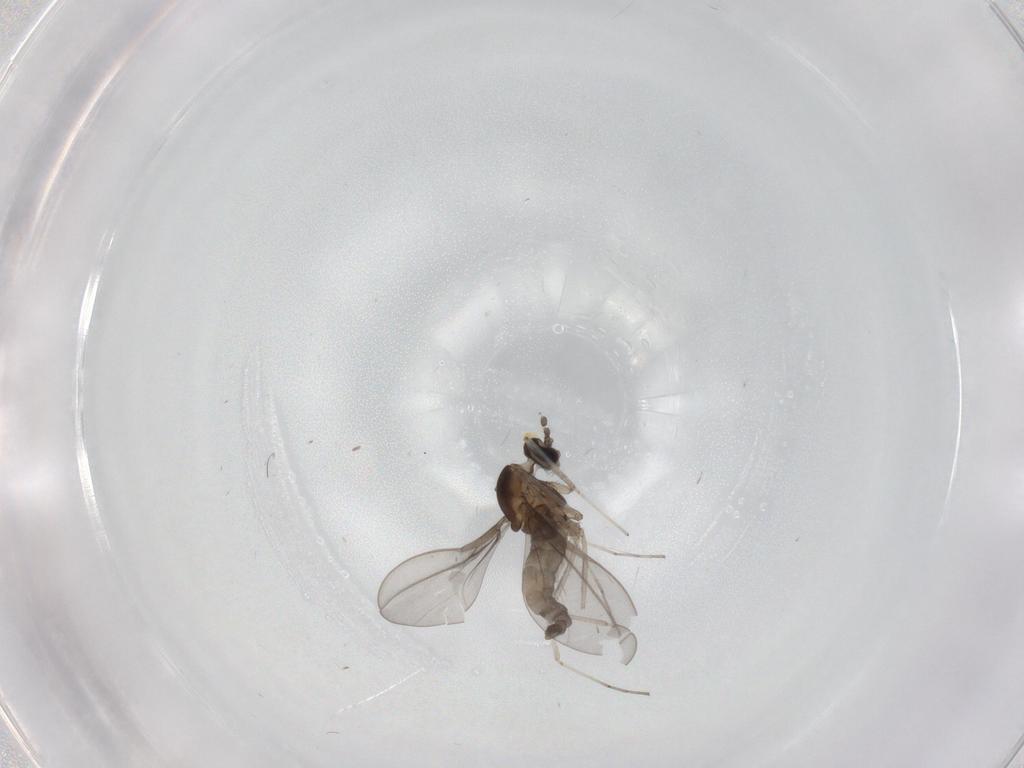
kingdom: Animalia
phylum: Arthropoda
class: Insecta
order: Diptera
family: Cecidomyiidae
